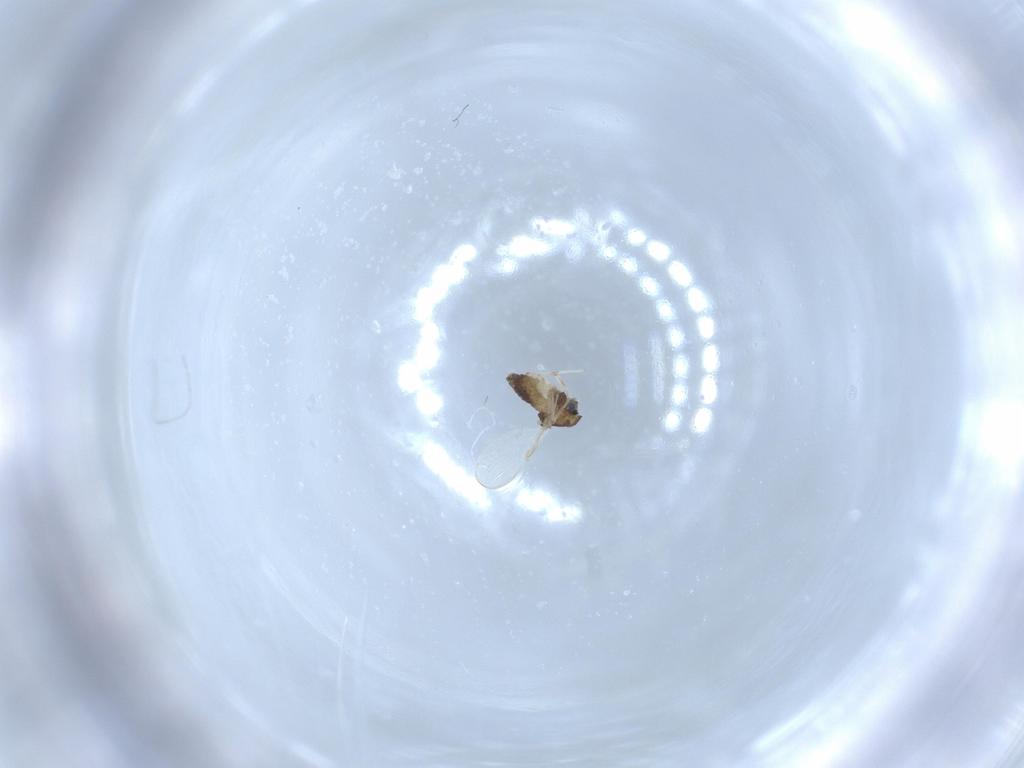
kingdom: Animalia
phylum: Arthropoda
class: Insecta
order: Diptera
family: Chironomidae
